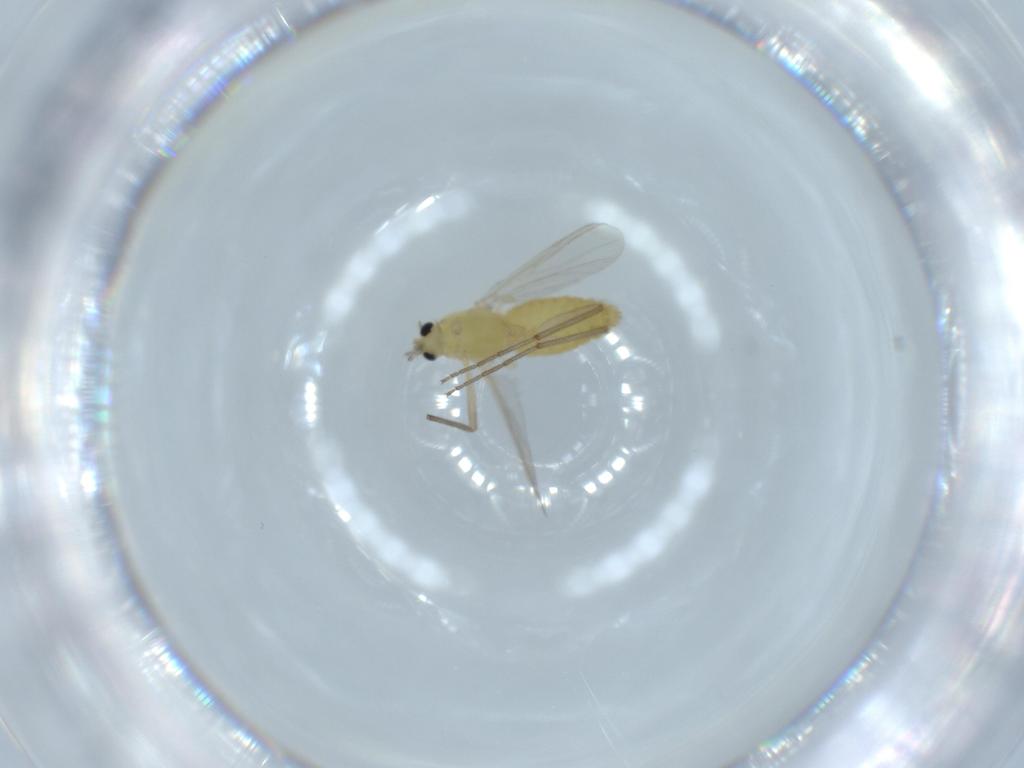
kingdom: Animalia
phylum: Arthropoda
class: Insecta
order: Diptera
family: Chironomidae
